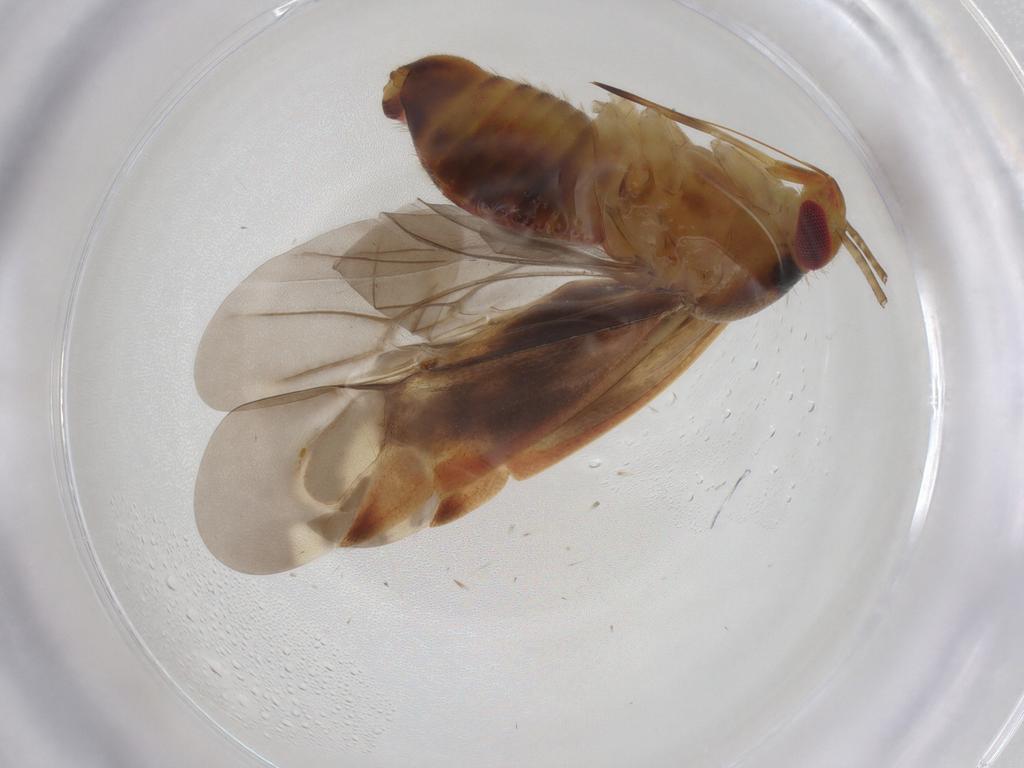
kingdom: Animalia
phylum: Arthropoda
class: Insecta
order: Hemiptera
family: Miridae
